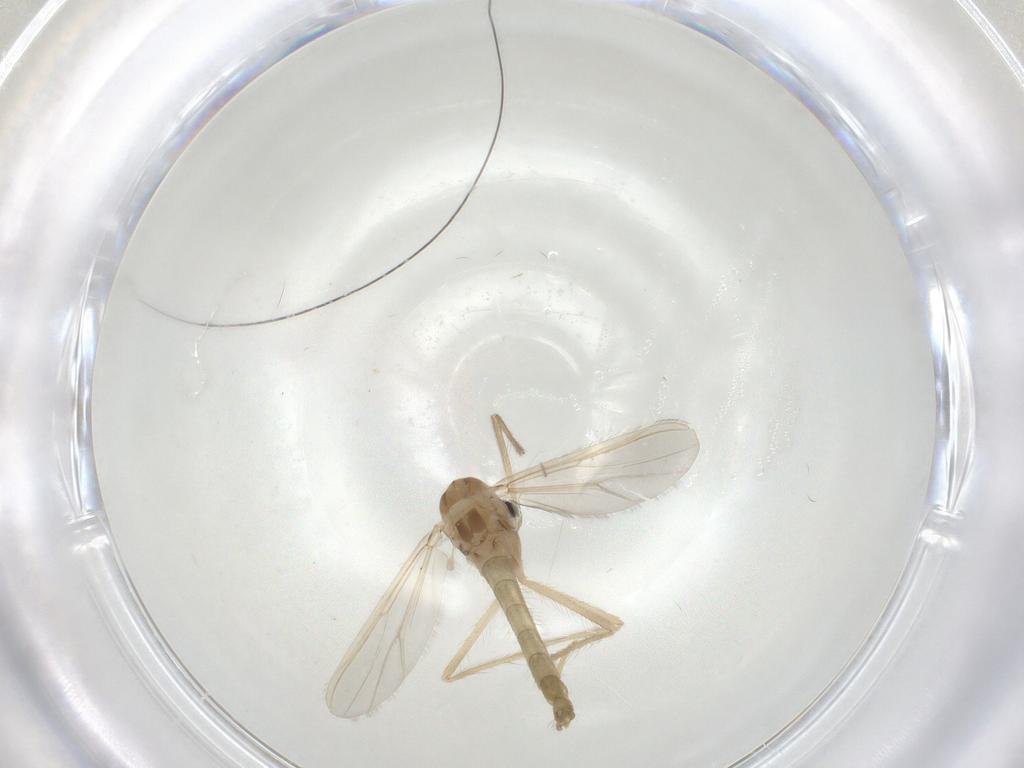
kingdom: Animalia
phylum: Arthropoda
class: Insecta
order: Diptera
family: Chironomidae
